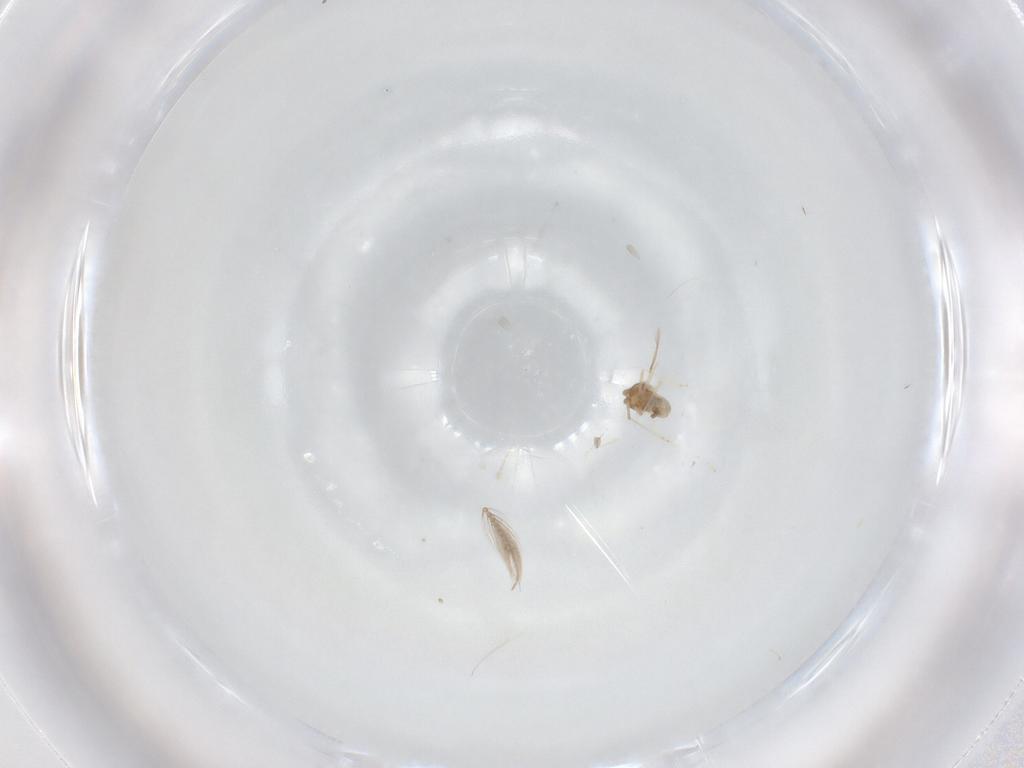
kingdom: Animalia
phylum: Arthropoda
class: Insecta
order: Diptera
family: Cecidomyiidae
